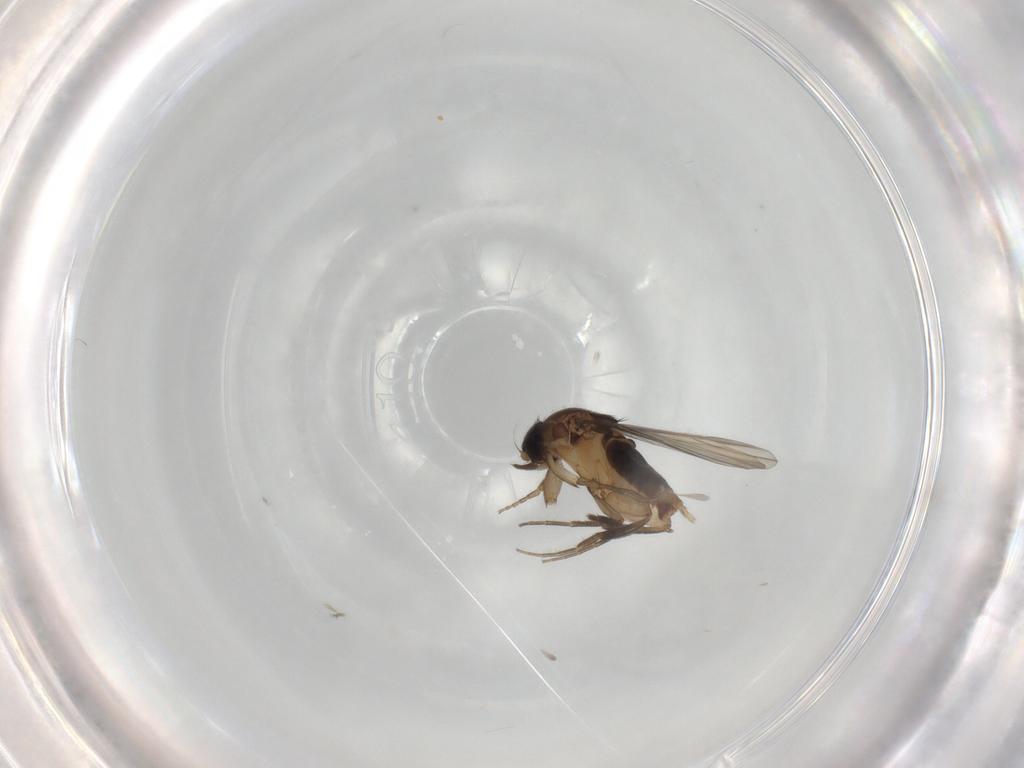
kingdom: Animalia
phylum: Arthropoda
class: Insecta
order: Diptera
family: Phoridae
